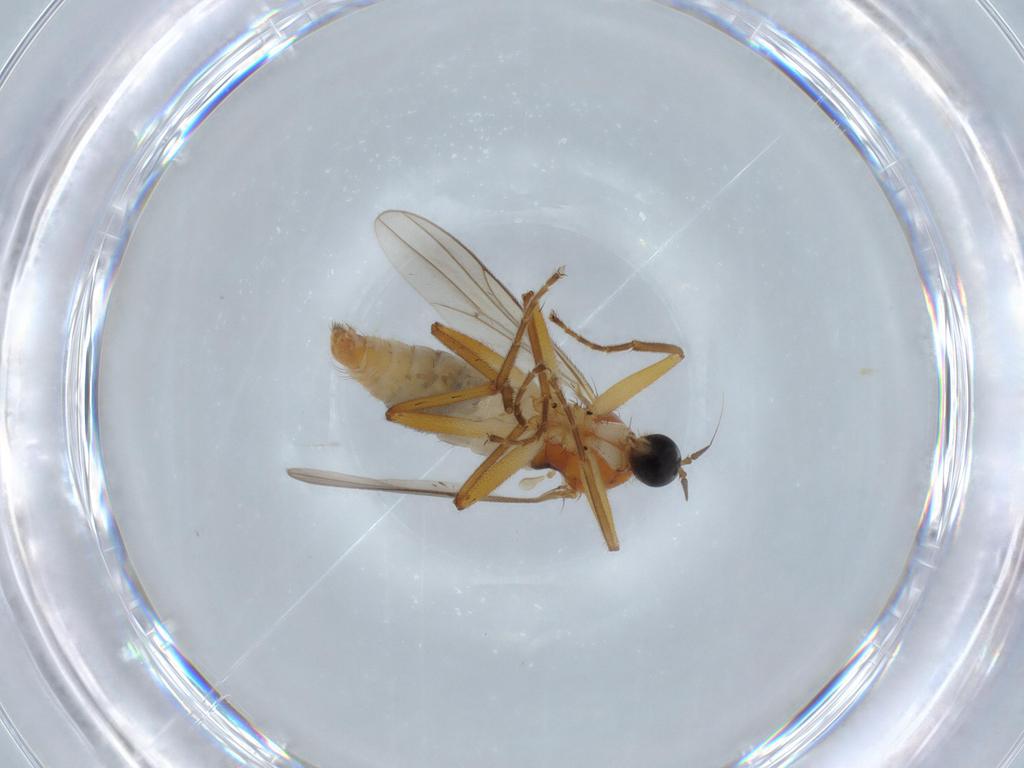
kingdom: Animalia
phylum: Arthropoda
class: Insecta
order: Diptera
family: Hybotidae
